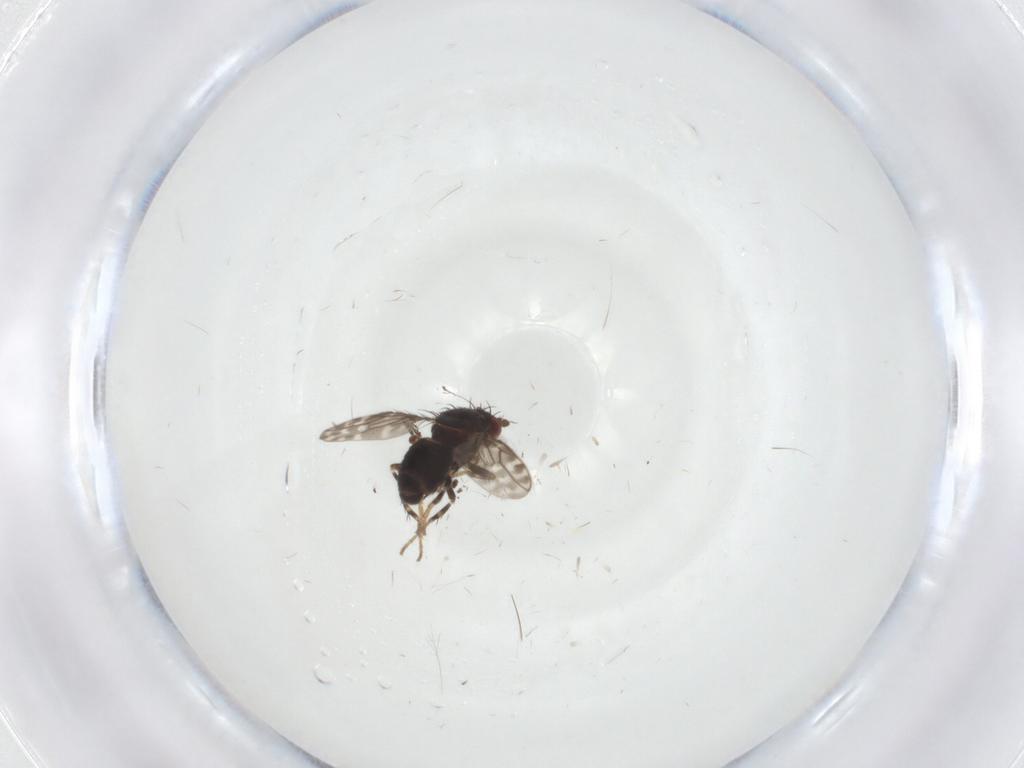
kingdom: Animalia
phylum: Arthropoda
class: Insecta
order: Diptera
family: Sphaeroceridae
